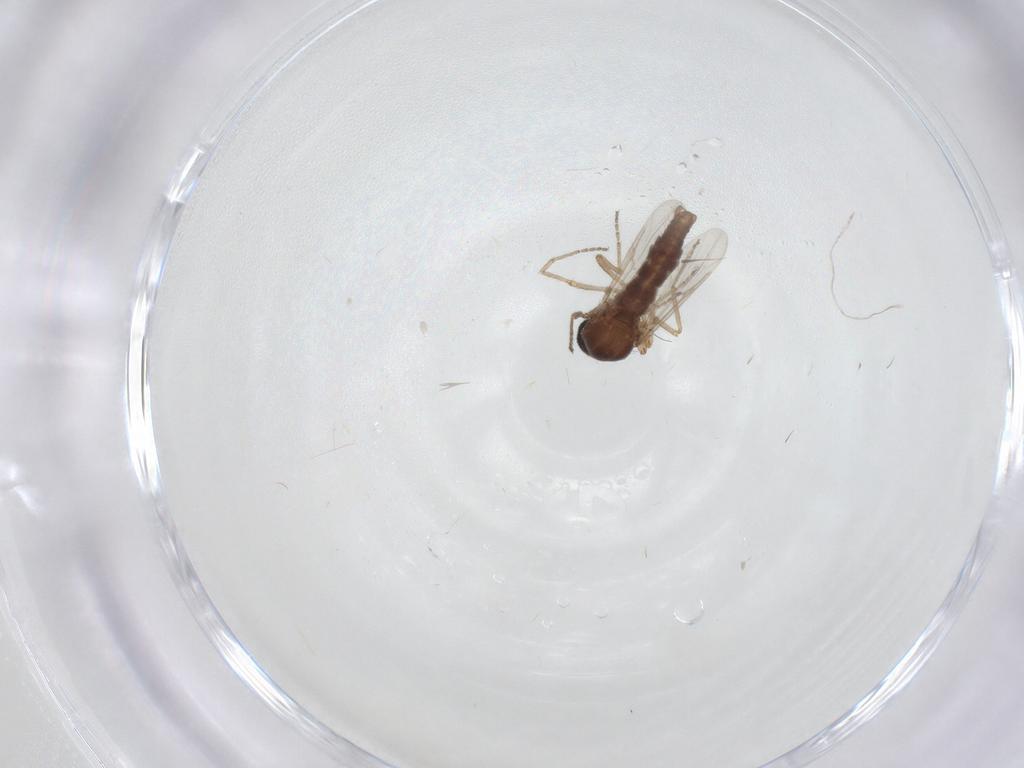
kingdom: Animalia
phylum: Arthropoda
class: Insecta
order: Diptera
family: Ceratopogonidae
